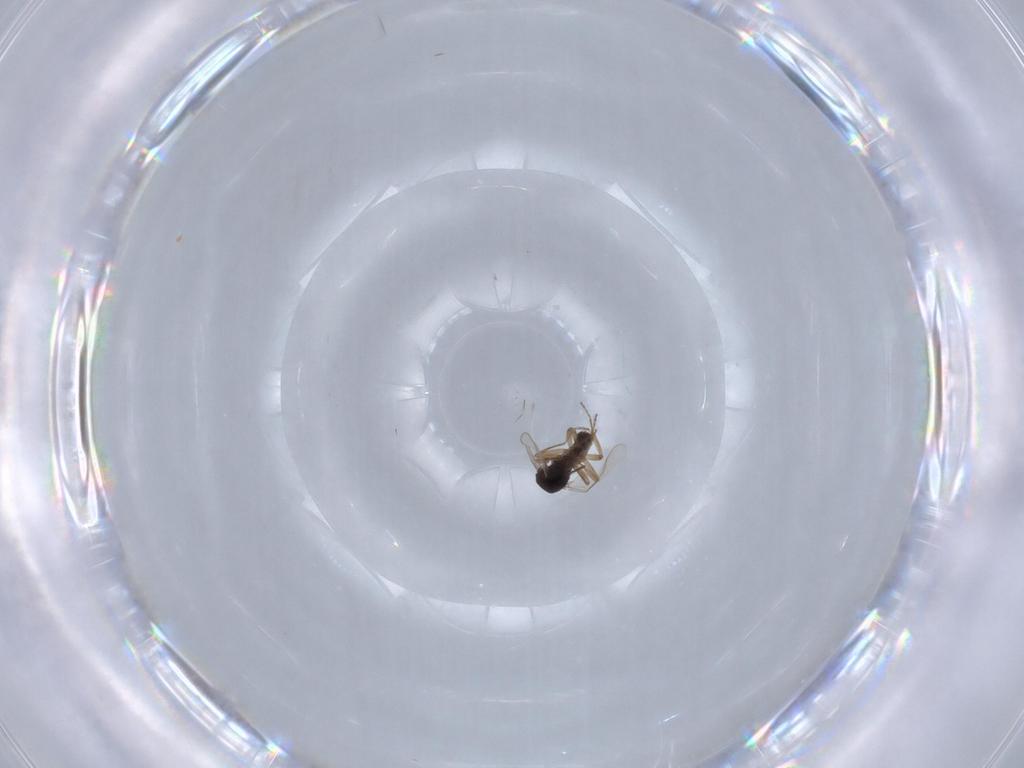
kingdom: Animalia
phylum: Arthropoda
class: Insecta
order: Diptera
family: Ceratopogonidae
